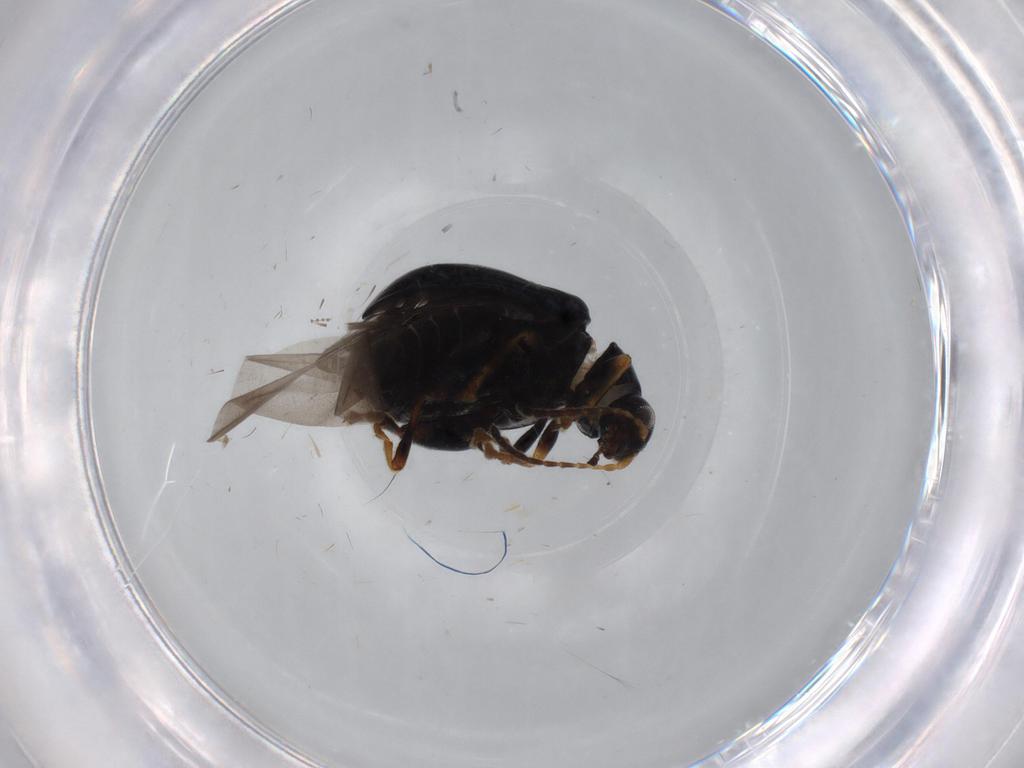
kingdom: Animalia
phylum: Arthropoda
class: Insecta
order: Coleoptera
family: Chrysomelidae
